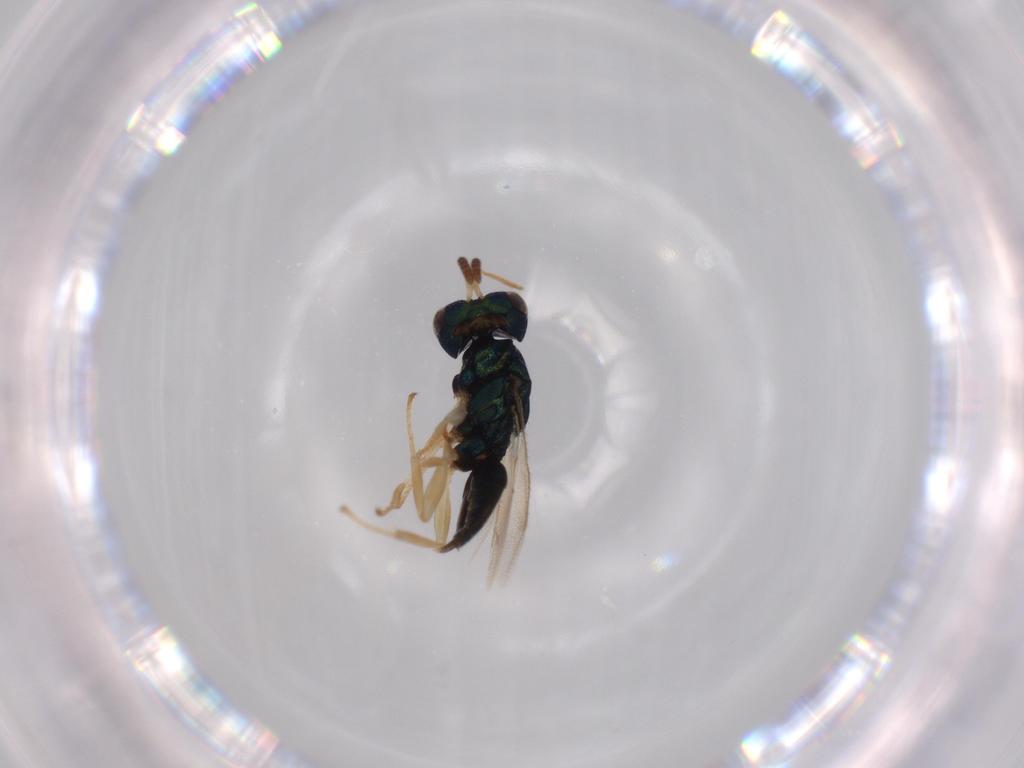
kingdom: Animalia
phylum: Arthropoda
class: Insecta
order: Hymenoptera
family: Pteromalidae
